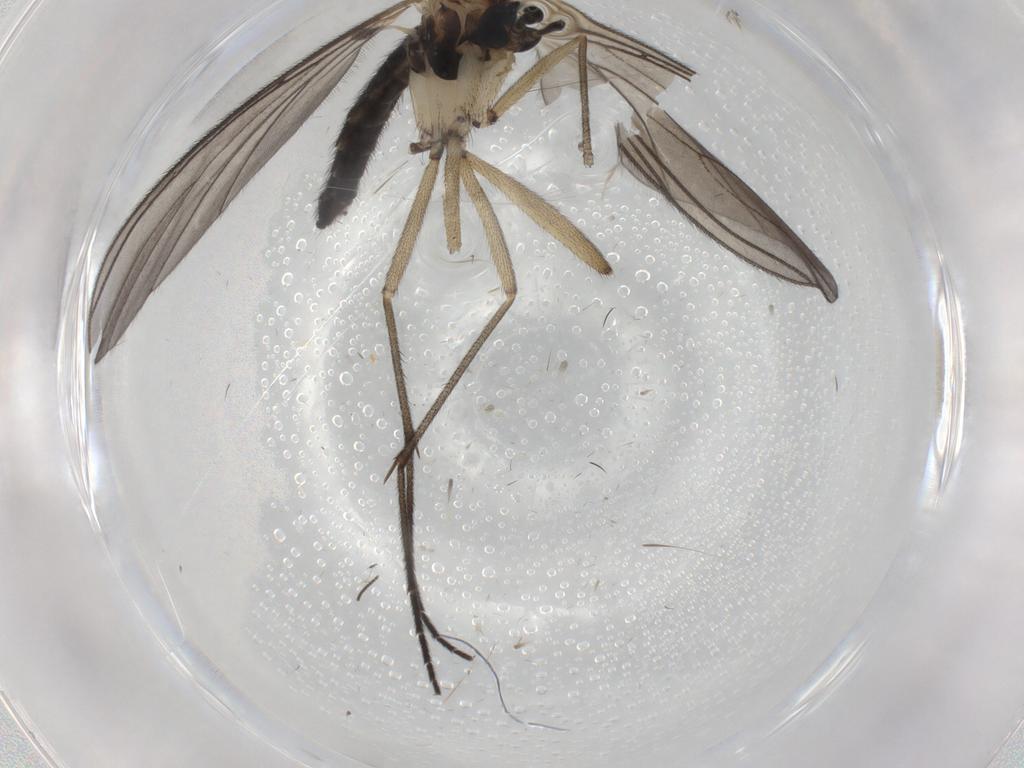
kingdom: Animalia
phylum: Arthropoda
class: Insecta
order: Diptera
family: Sciaridae
